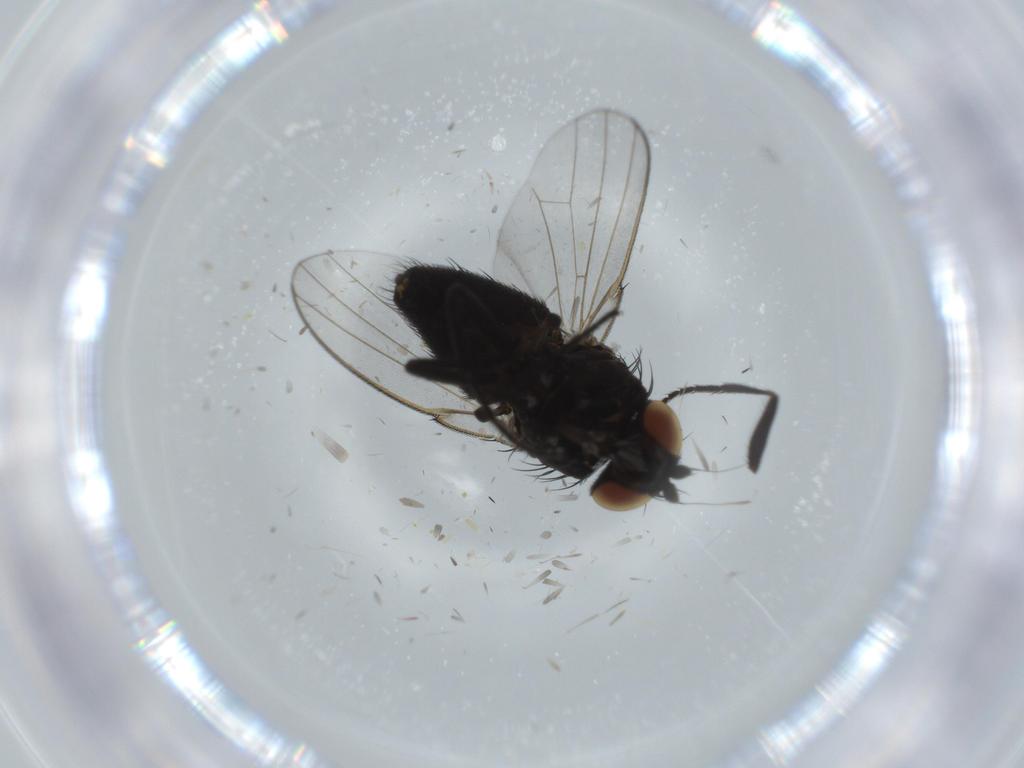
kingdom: Animalia
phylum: Arthropoda
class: Insecta
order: Diptera
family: Milichiidae
